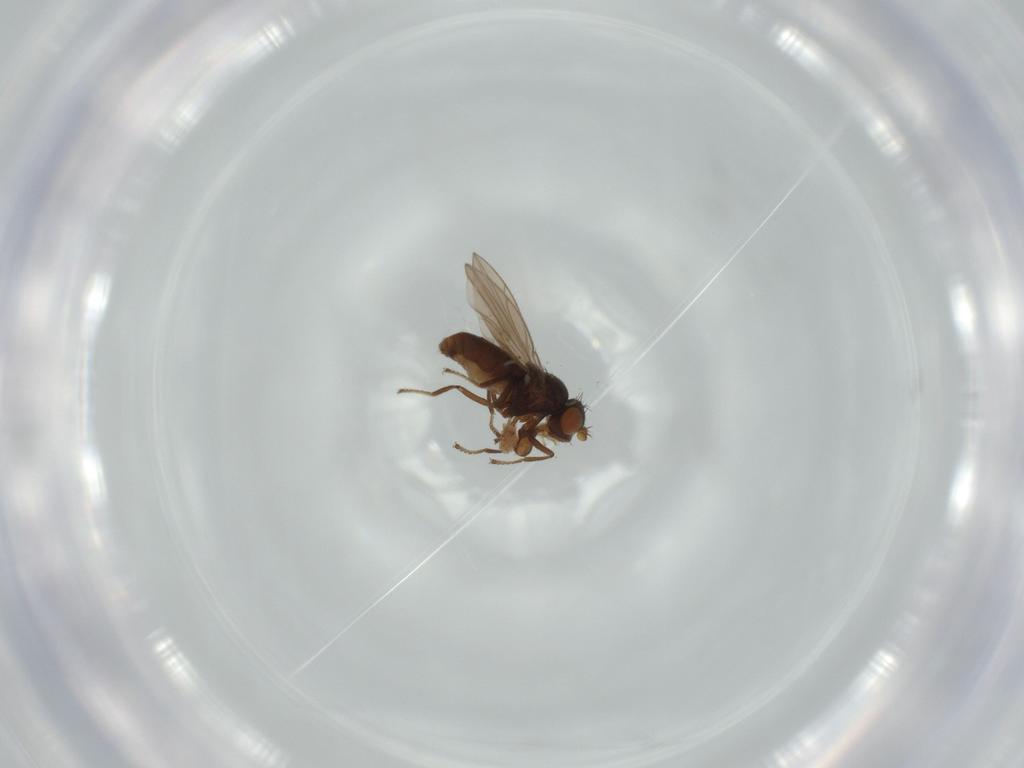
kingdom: Animalia
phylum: Arthropoda
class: Insecta
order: Diptera
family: Ephydridae
